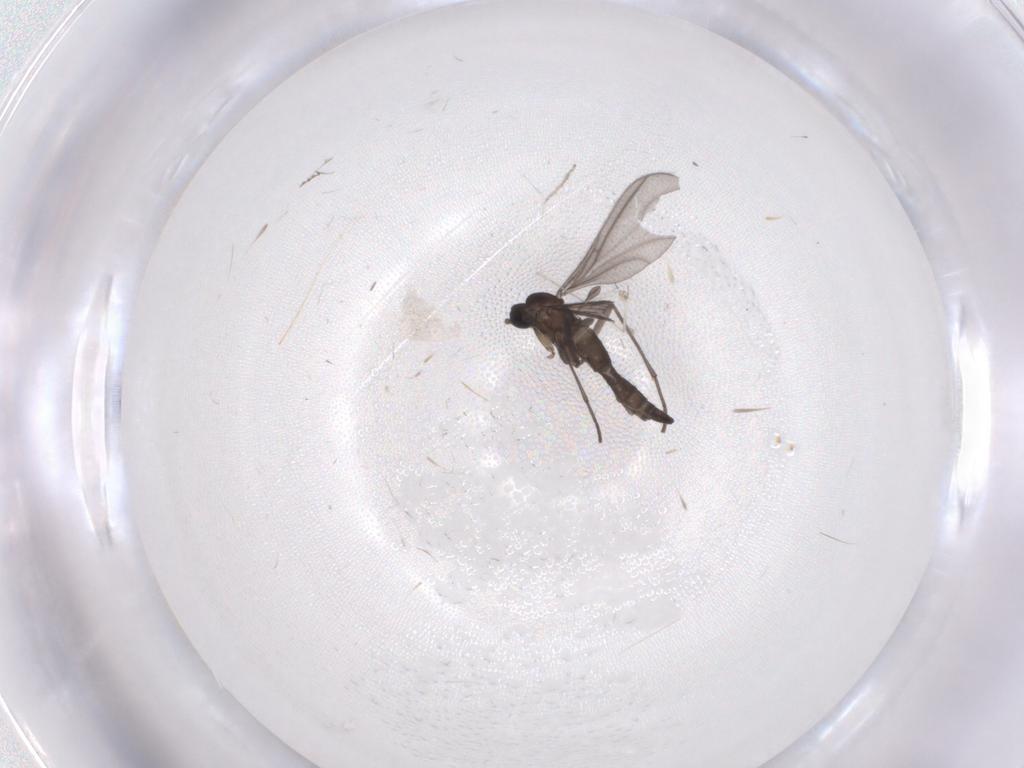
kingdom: Animalia
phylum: Arthropoda
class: Insecta
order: Diptera
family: Sciaridae
